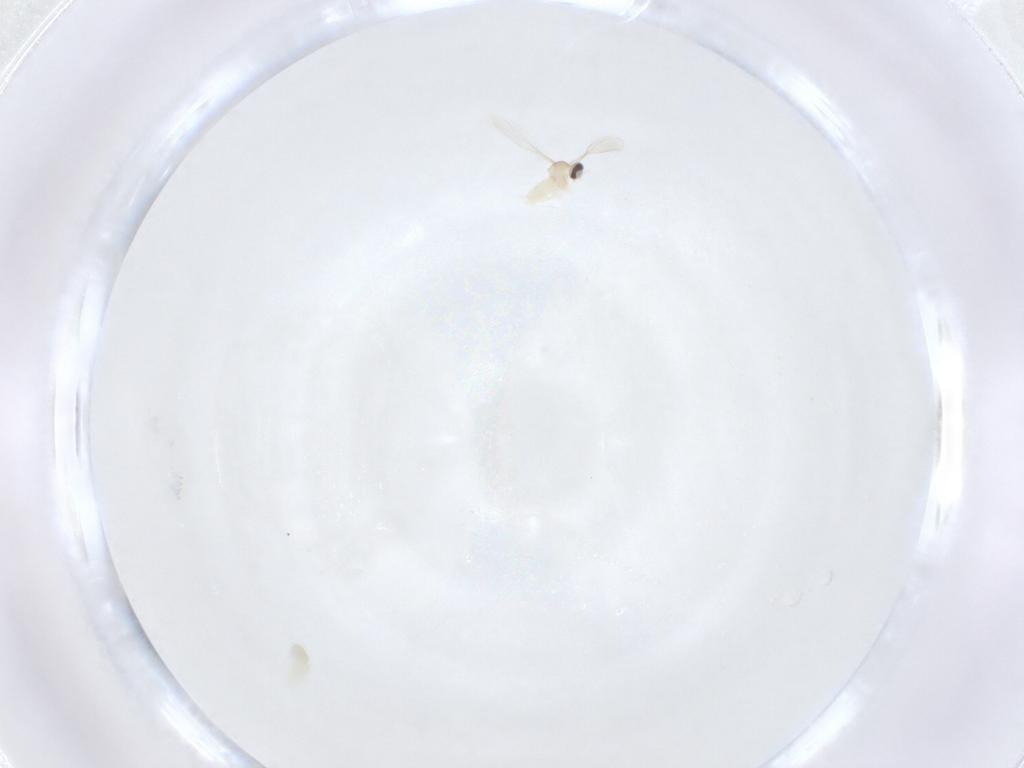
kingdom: Animalia
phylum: Arthropoda
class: Insecta
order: Diptera
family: Cecidomyiidae
